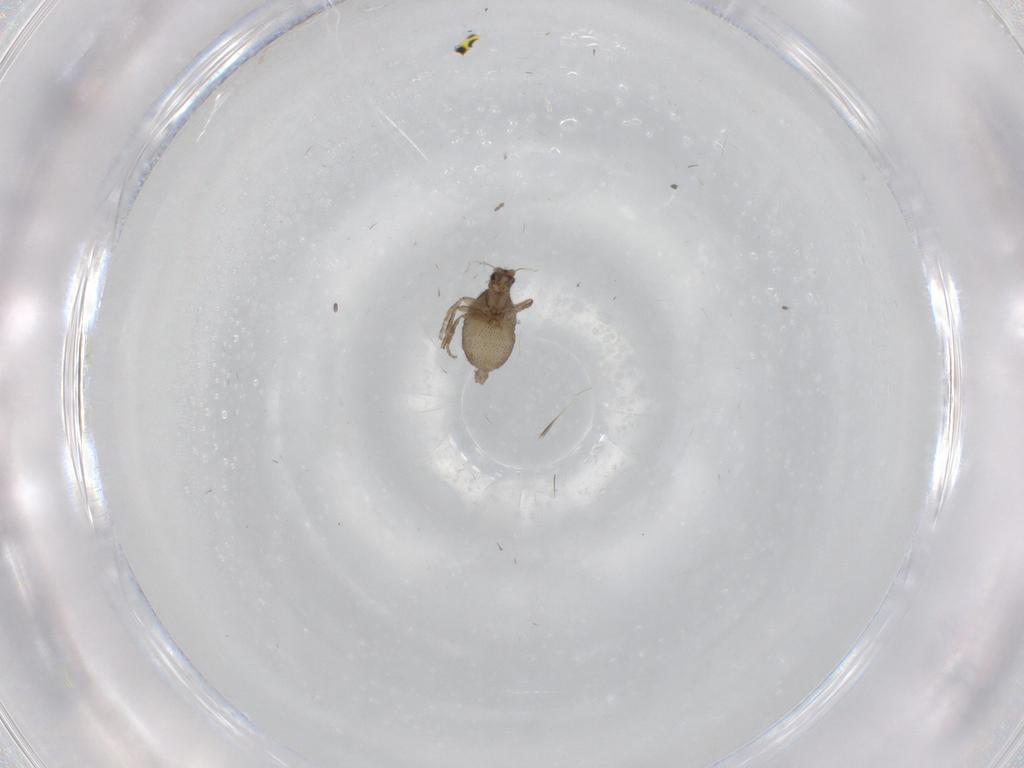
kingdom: Animalia
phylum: Arthropoda
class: Insecta
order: Diptera
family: Phoridae
